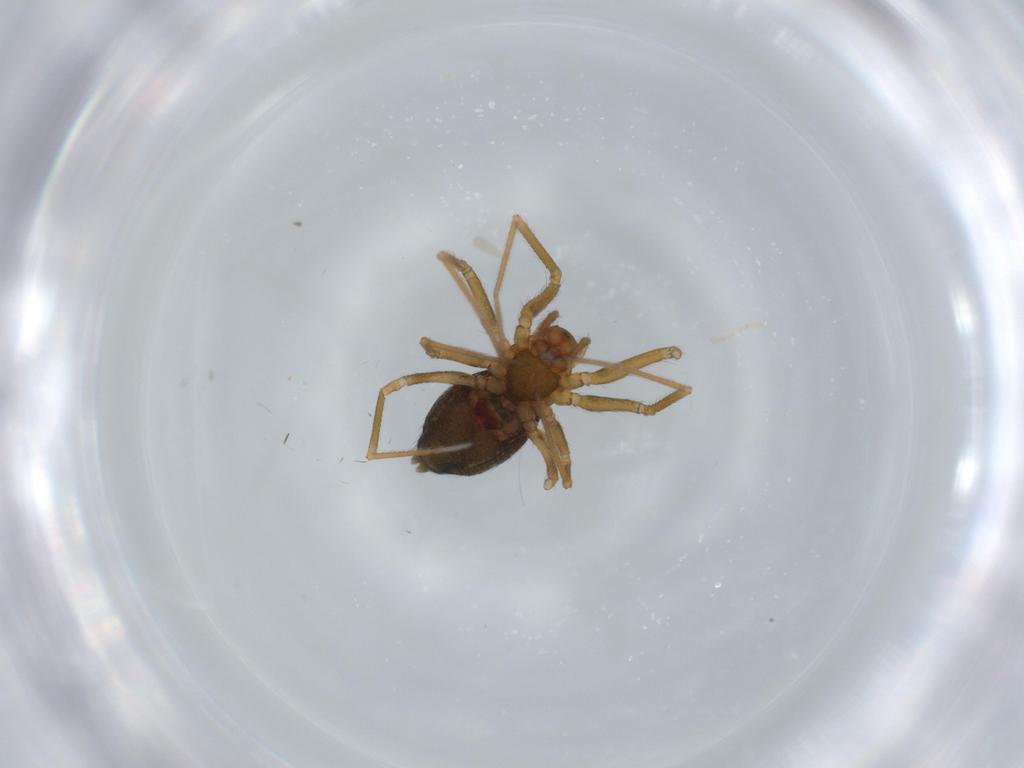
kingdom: Animalia
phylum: Arthropoda
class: Arachnida
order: Araneae
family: Linyphiidae
